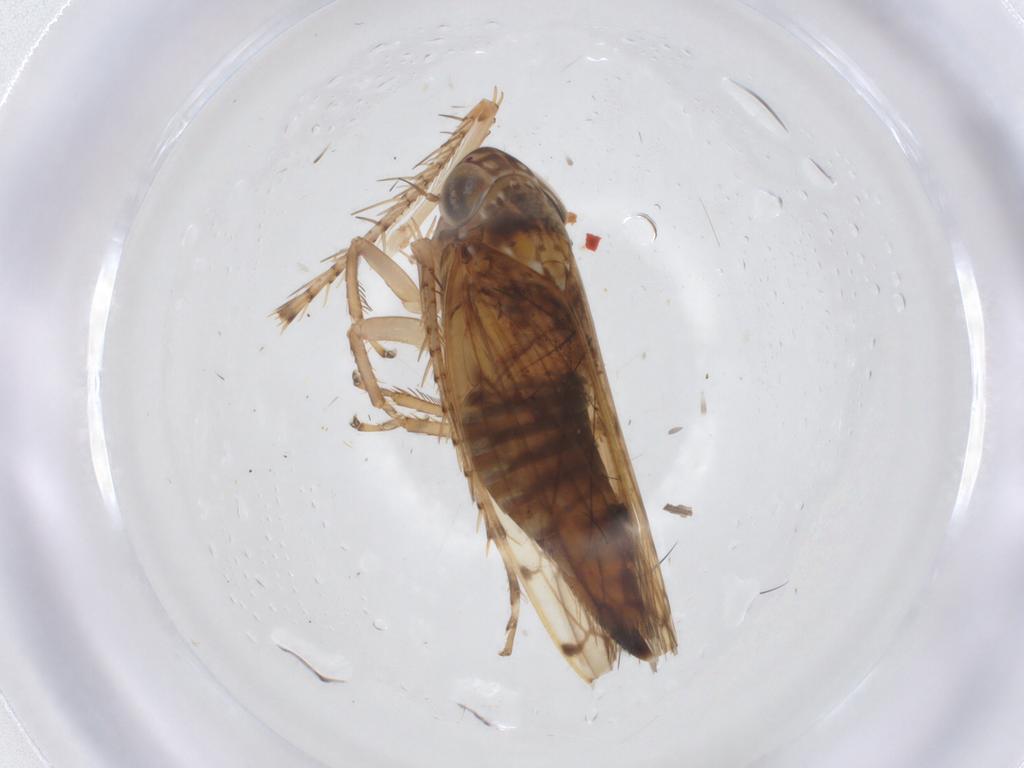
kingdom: Animalia
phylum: Arthropoda
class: Insecta
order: Hemiptera
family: Cicadellidae
